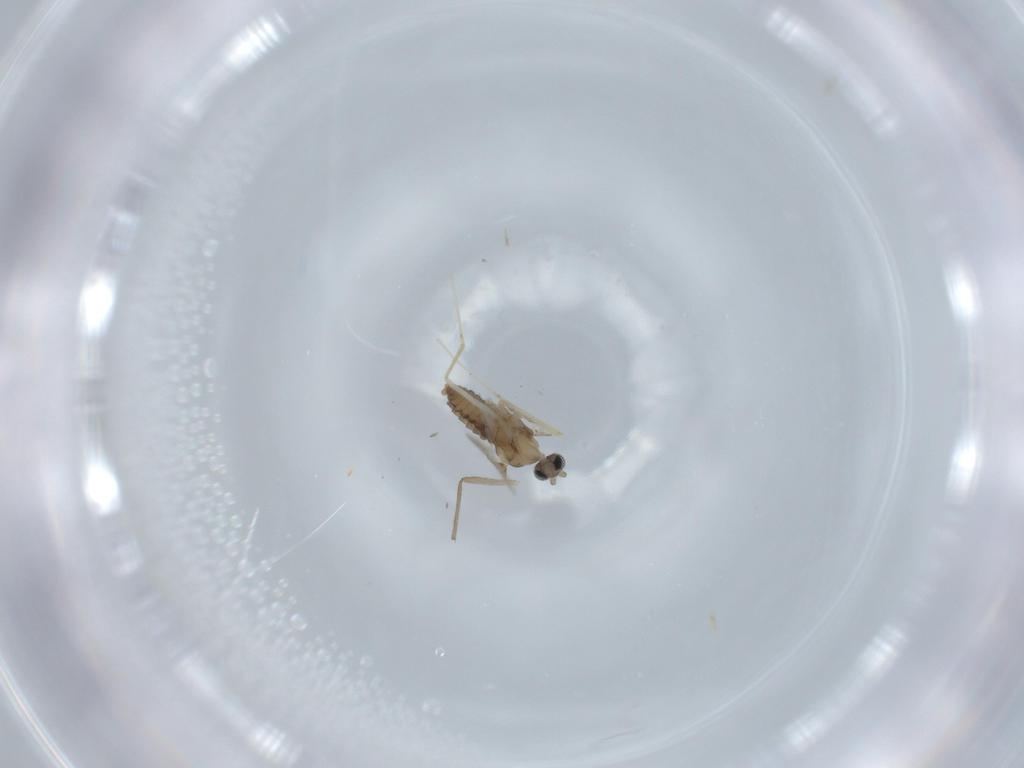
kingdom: Animalia
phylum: Arthropoda
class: Insecta
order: Diptera
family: Cecidomyiidae
